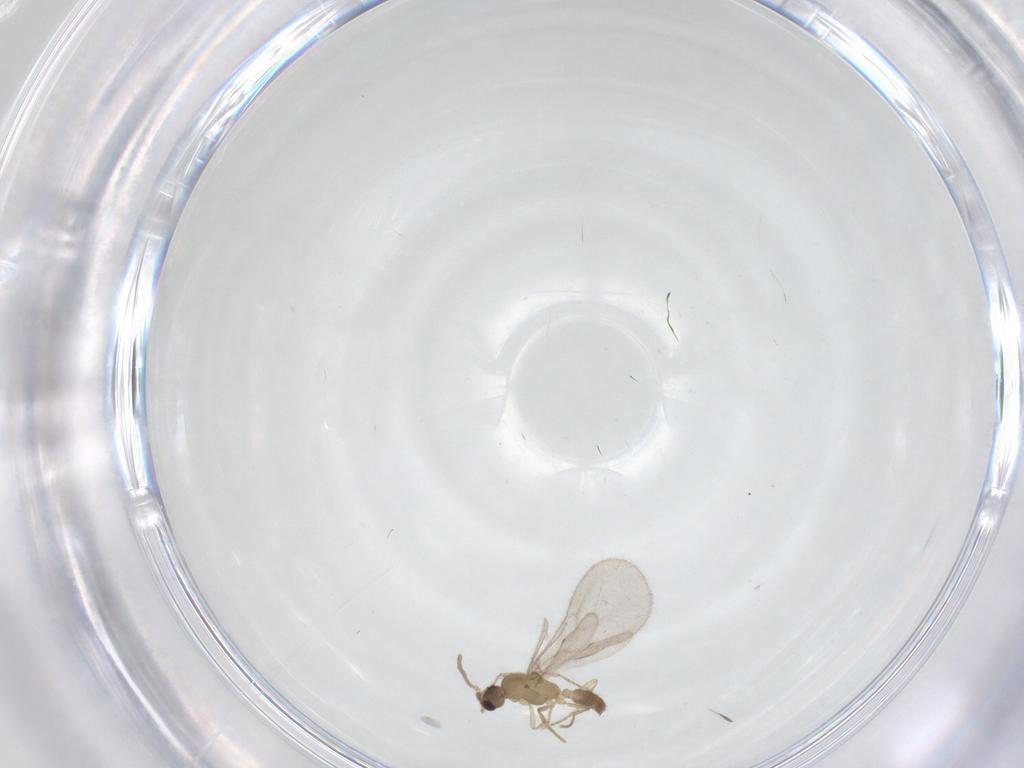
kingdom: Animalia
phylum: Arthropoda
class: Insecta
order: Hymenoptera
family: Formicidae
